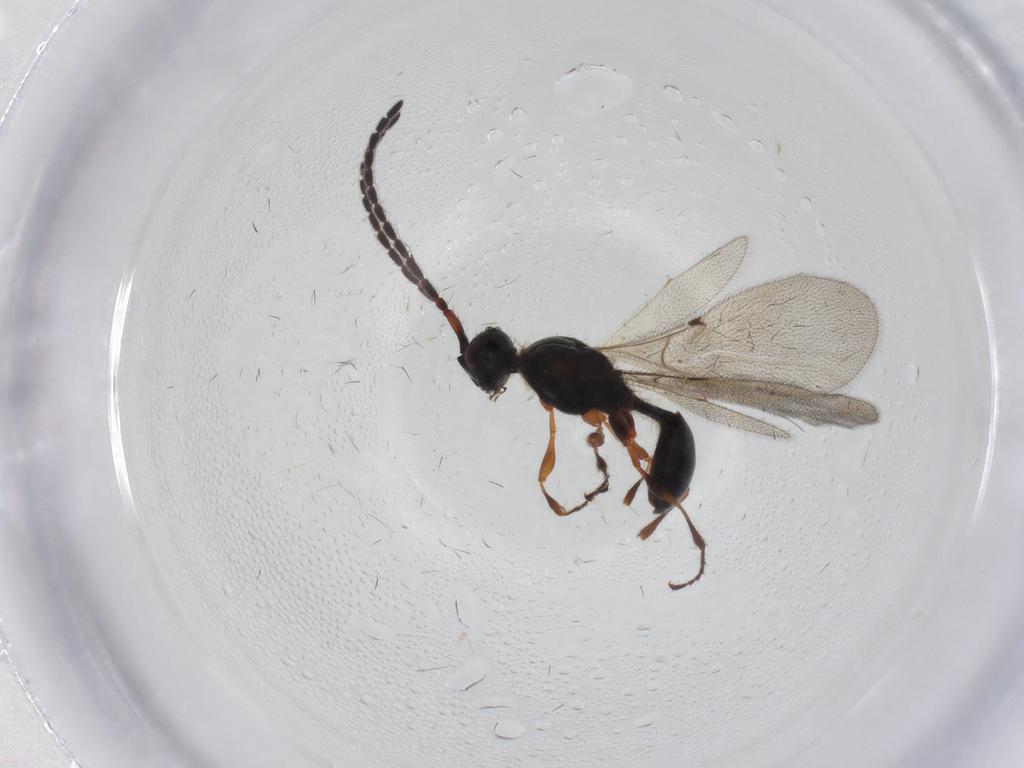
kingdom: Animalia
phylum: Arthropoda
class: Insecta
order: Hymenoptera
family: Diapriidae
